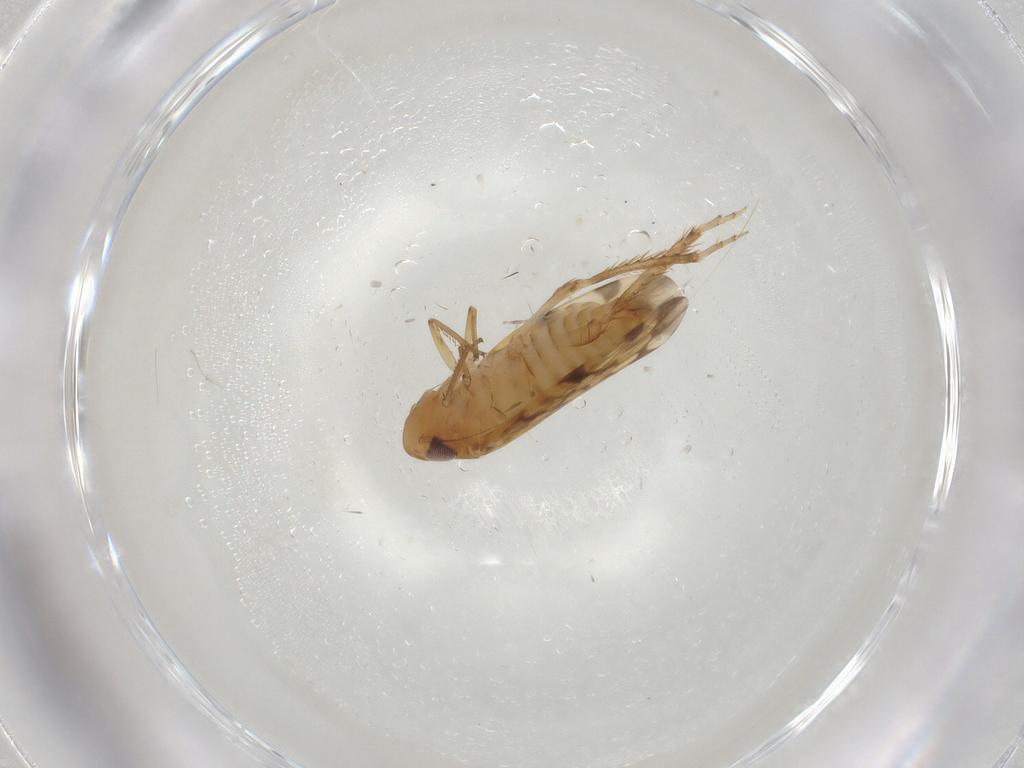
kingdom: Animalia
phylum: Arthropoda
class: Insecta
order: Hemiptera
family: Cicadellidae
